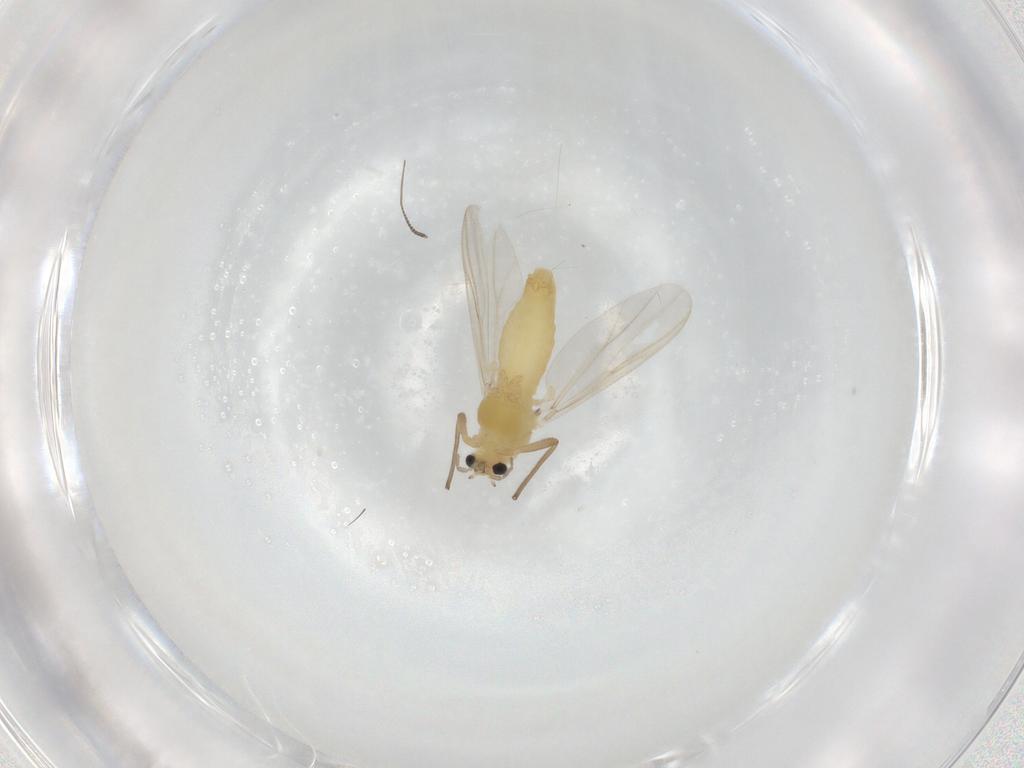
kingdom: Animalia
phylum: Arthropoda
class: Insecta
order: Diptera
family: Chironomidae
